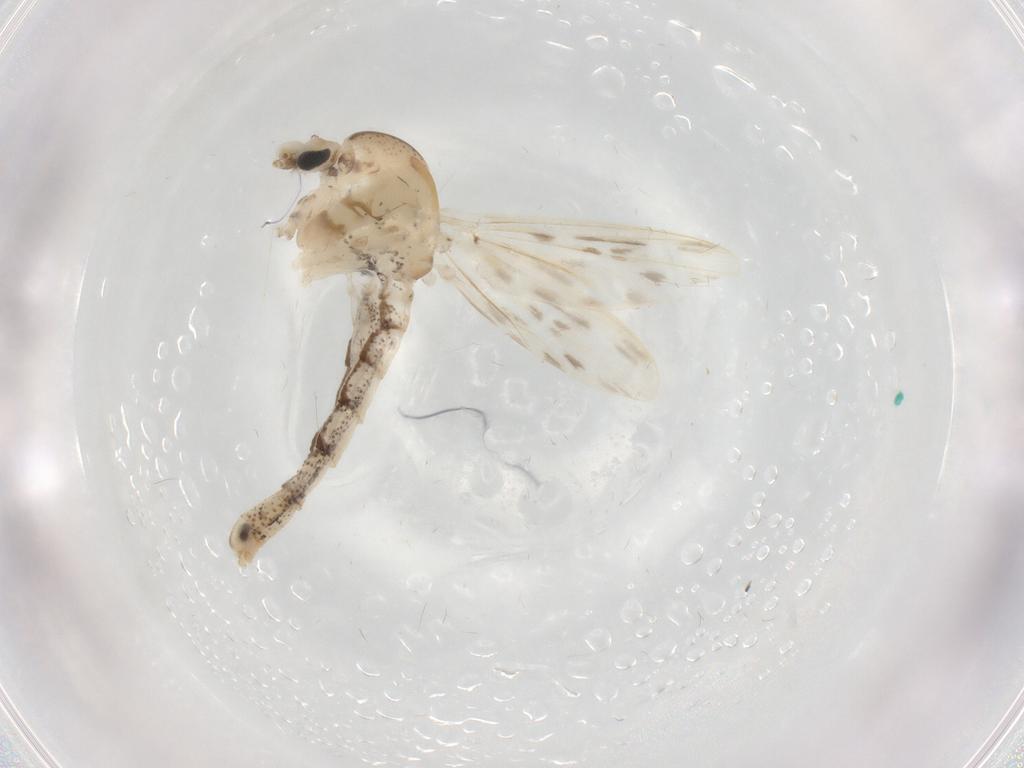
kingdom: Animalia
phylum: Arthropoda
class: Insecta
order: Diptera
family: Chaoboridae
